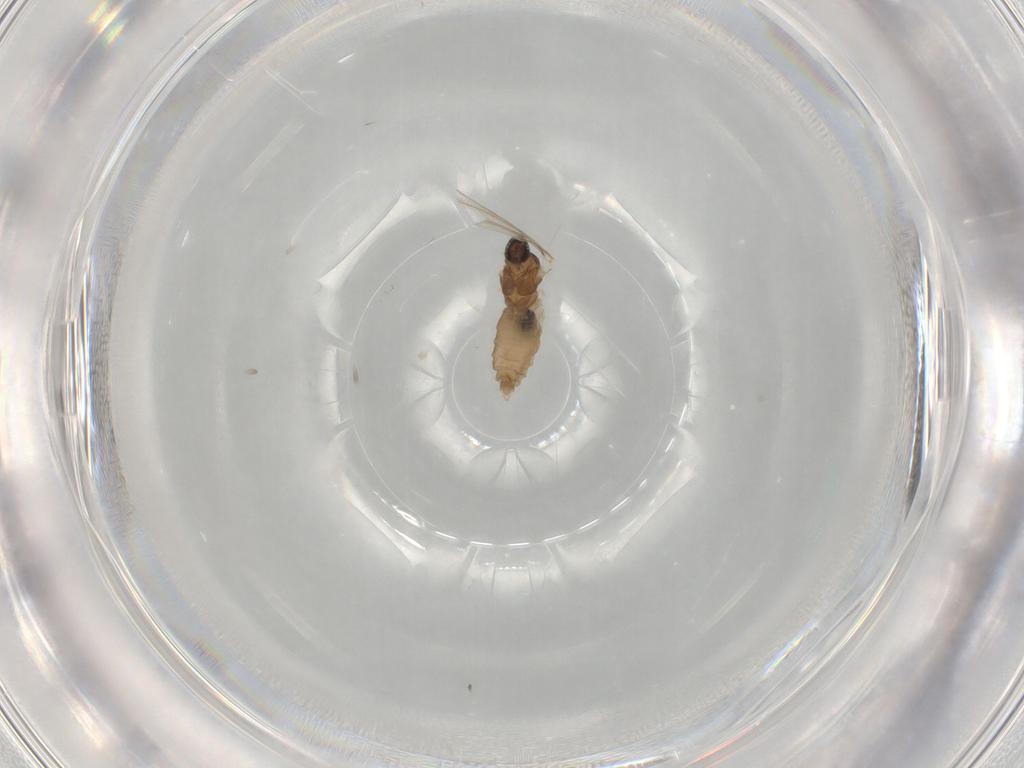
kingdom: Animalia
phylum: Arthropoda
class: Insecta
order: Diptera
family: Cecidomyiidae
